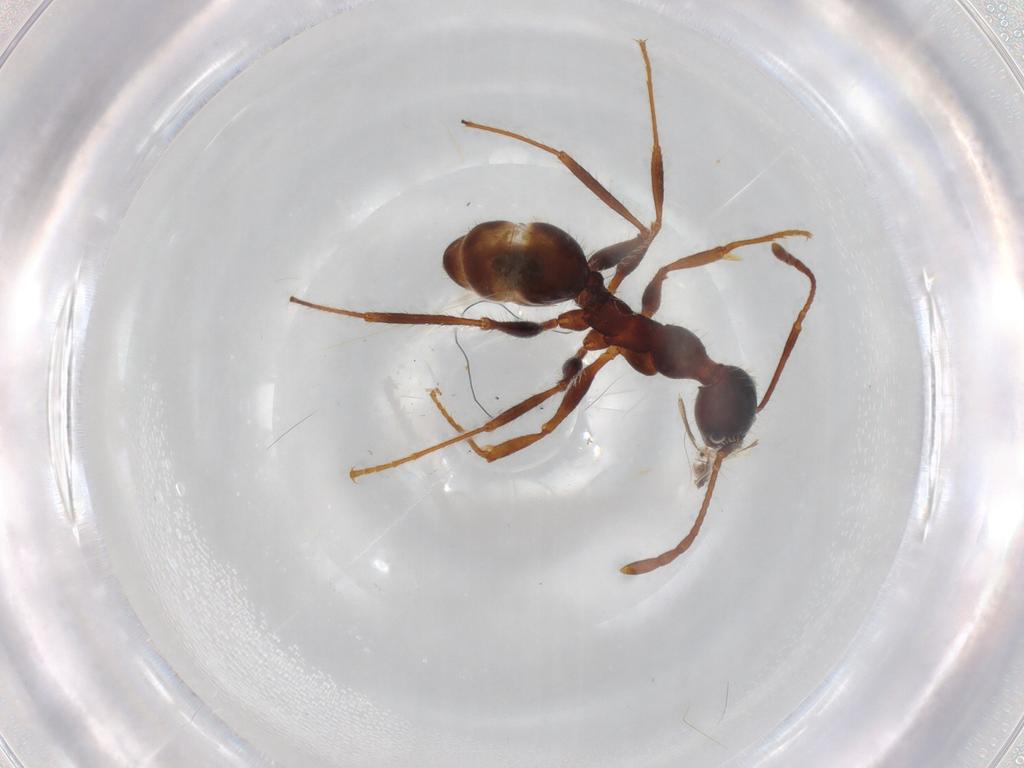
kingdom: Animalia
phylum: Arthropoda
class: Insecta
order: Hymenoptera
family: Formicidae
